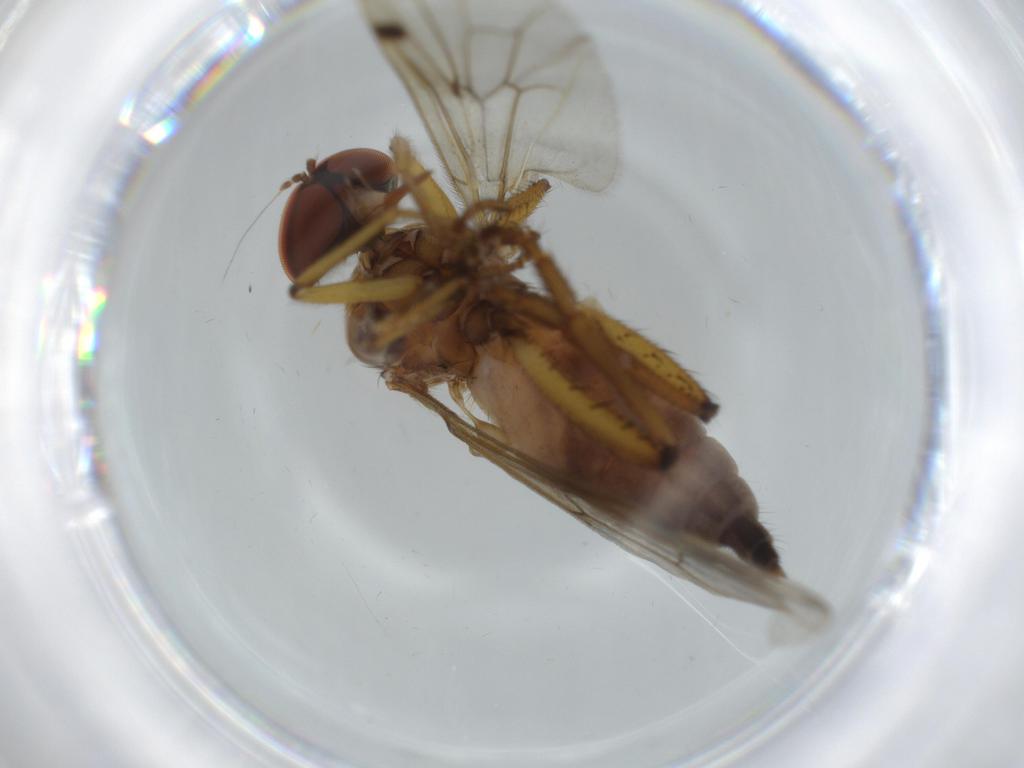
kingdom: Animalia
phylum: Arthropoda
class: Insecta
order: Diptera
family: Hybotidae
